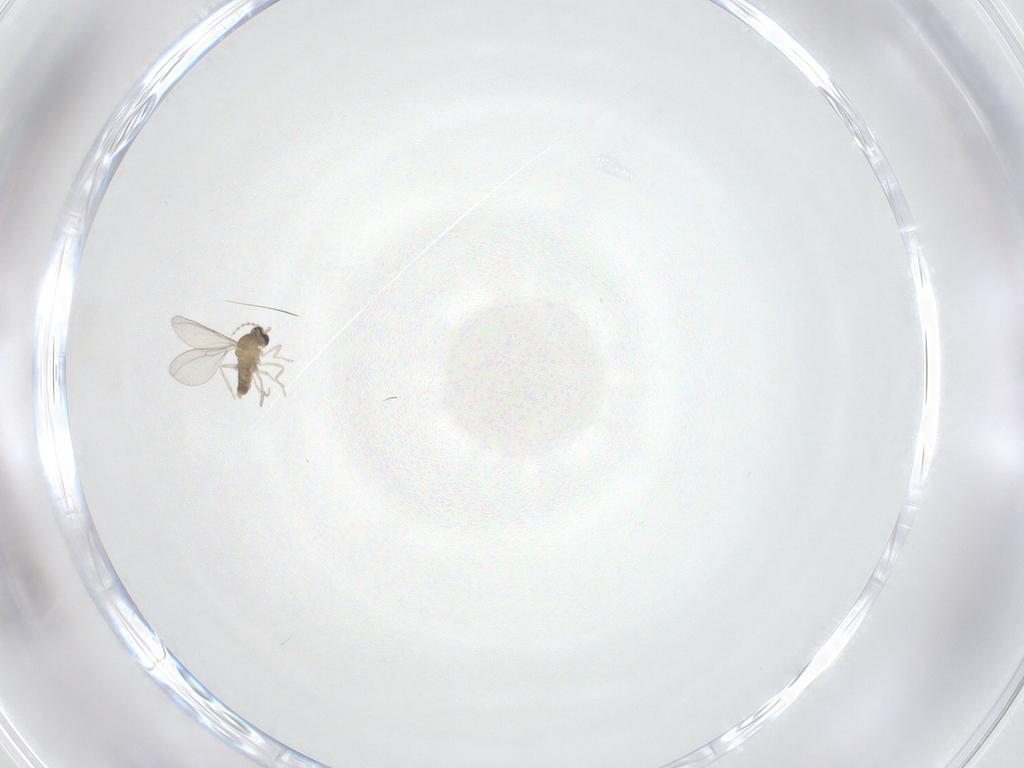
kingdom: Animalia
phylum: Arthropoda
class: Insecta
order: Diptera
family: Cecidomyiidae
